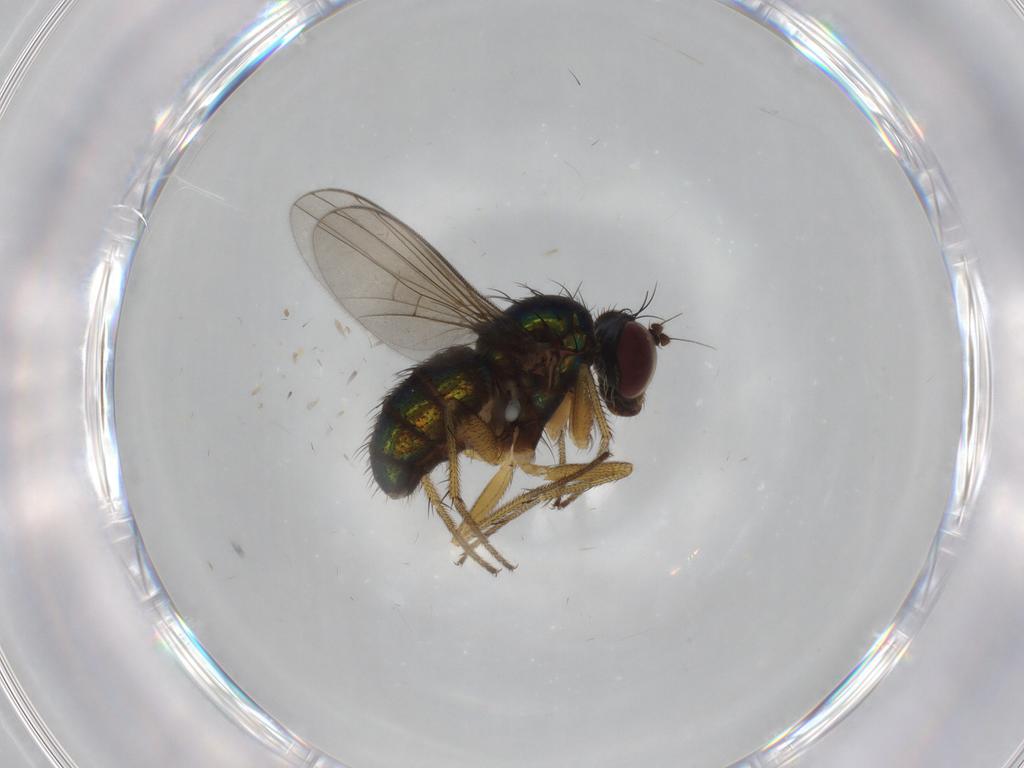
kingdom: Animalia
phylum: Arthropoda
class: Insecta
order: Diptera
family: Dolichopodidae
